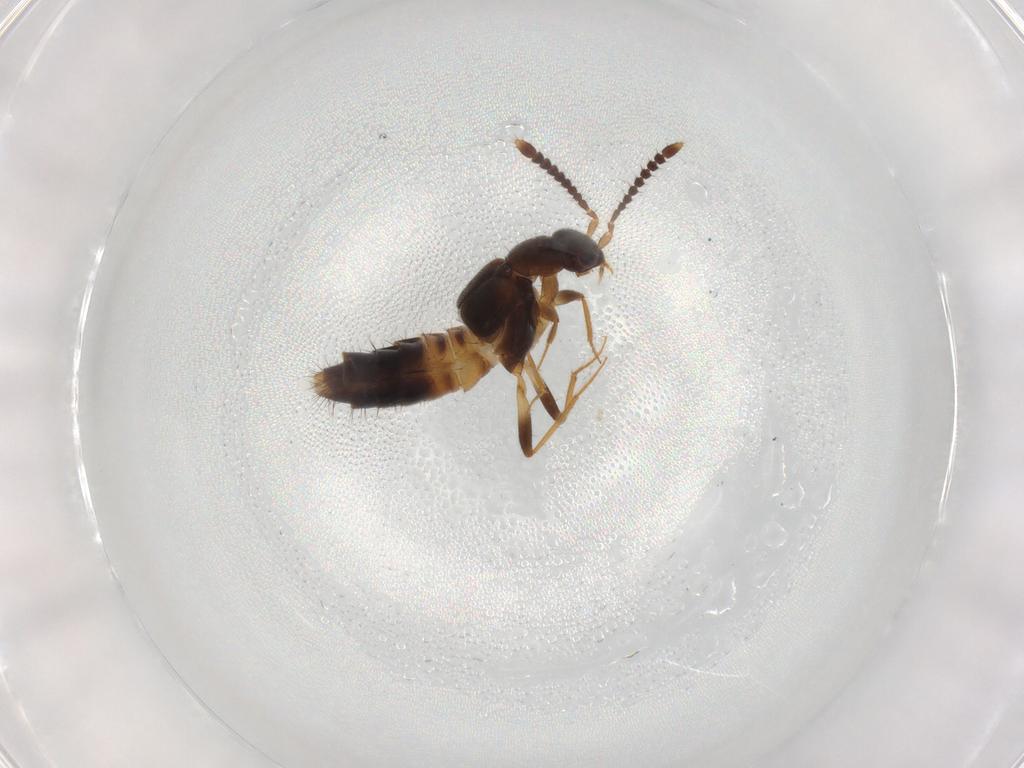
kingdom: Animalia
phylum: Arthropoda
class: Insecta
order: Coleoptera
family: Staphylinidae
